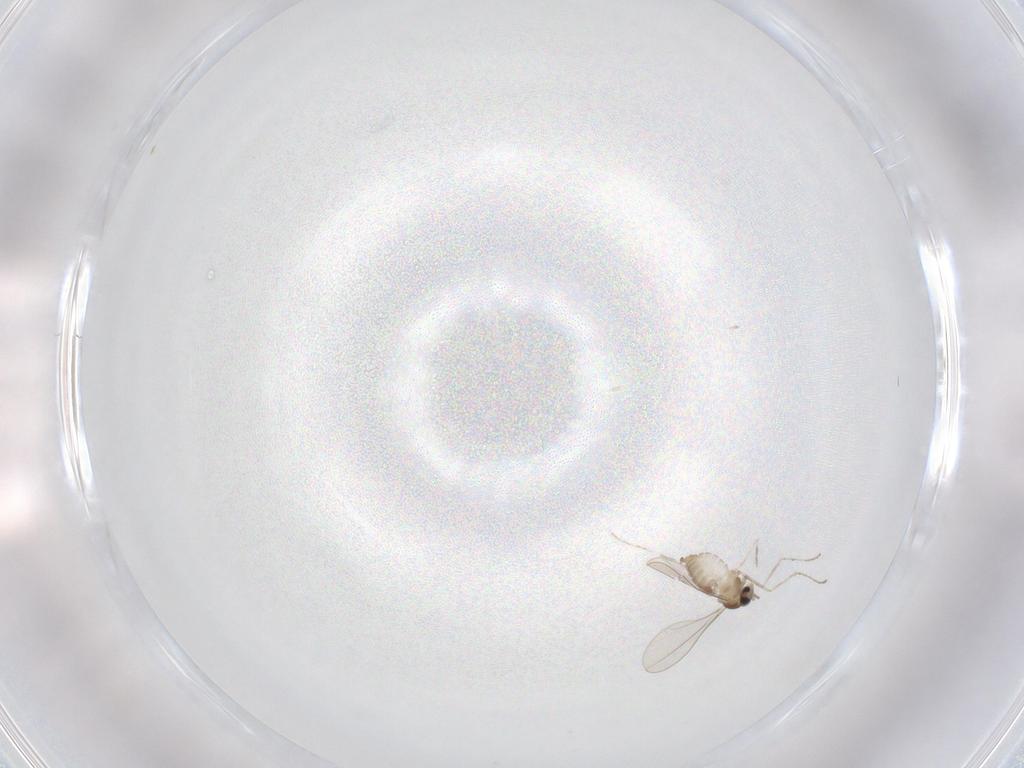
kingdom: Animalia
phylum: Arthropoda
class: Insecta
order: Diptera
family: Cecidomyiidae
